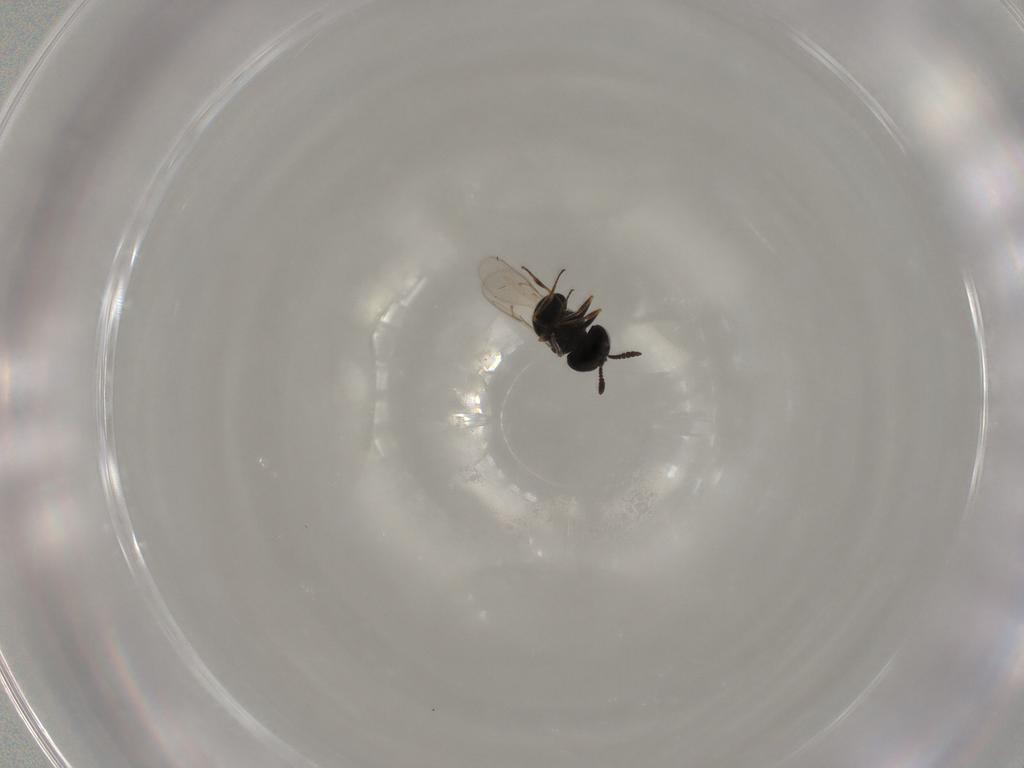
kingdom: Animalia
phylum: Arthropoda
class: Insecta
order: Hymenoptera
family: Scelionidae
